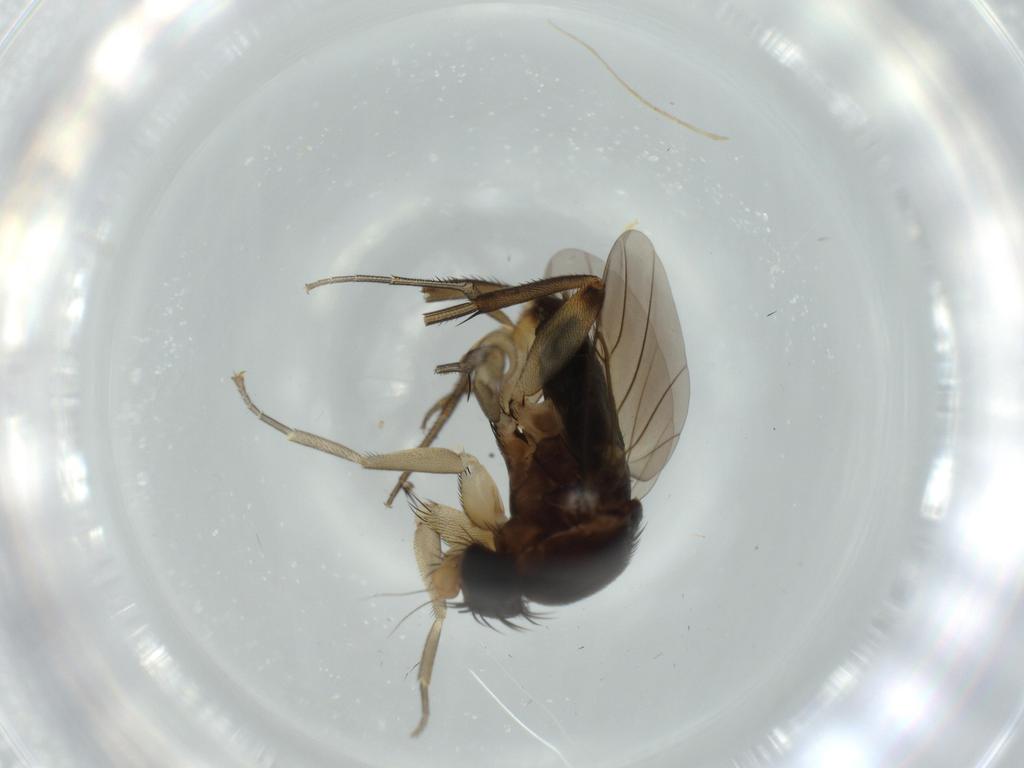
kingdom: Animalia
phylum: Arthropoda
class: Insecta
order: Diptera
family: Phoridae
